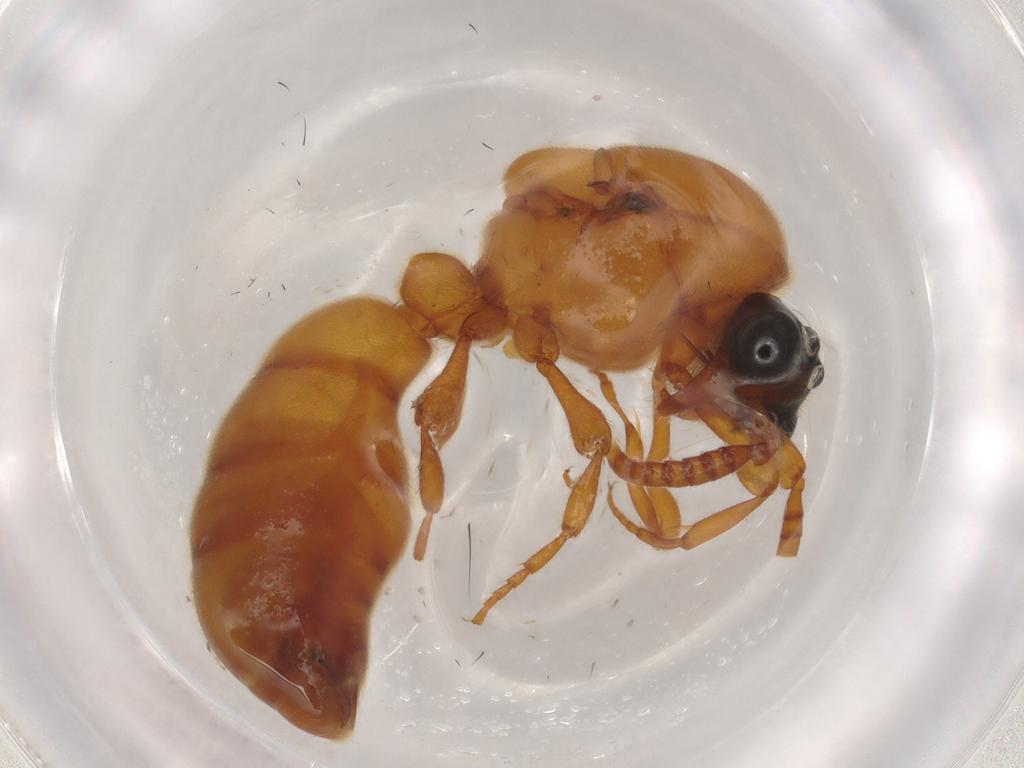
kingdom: Animalia
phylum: Arthropoda
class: Insecta
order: Hymenoptera
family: Formicidae
